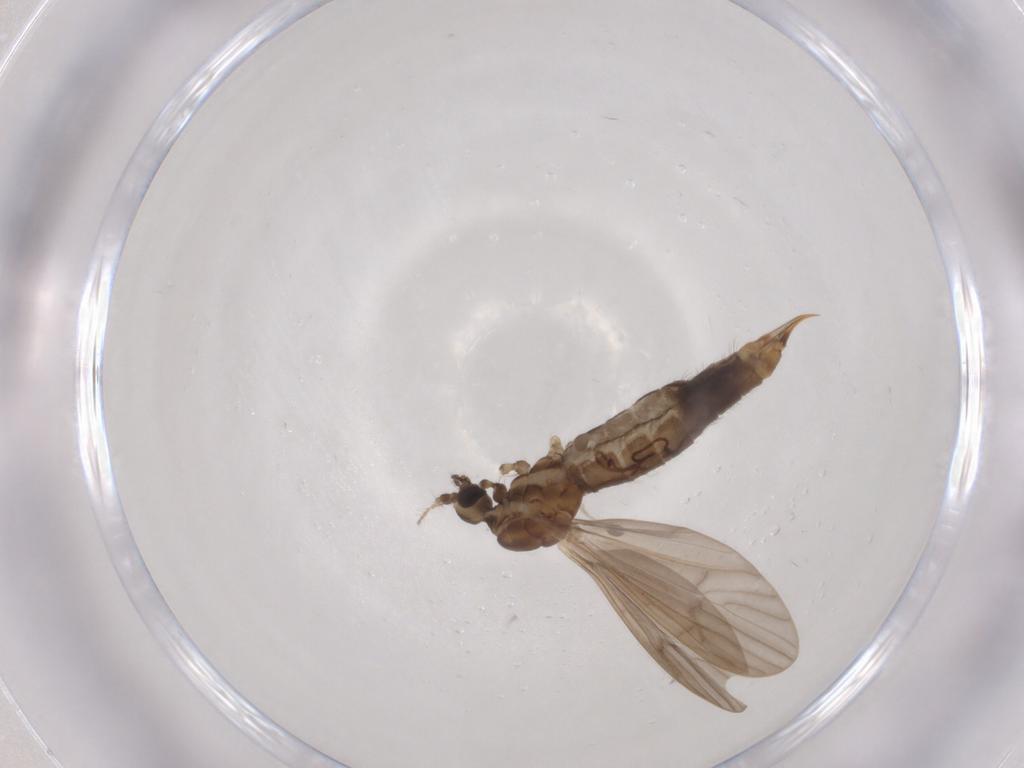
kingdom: Animalia
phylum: Arthropoda
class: Insecta
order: Diptera
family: Limoniidae
